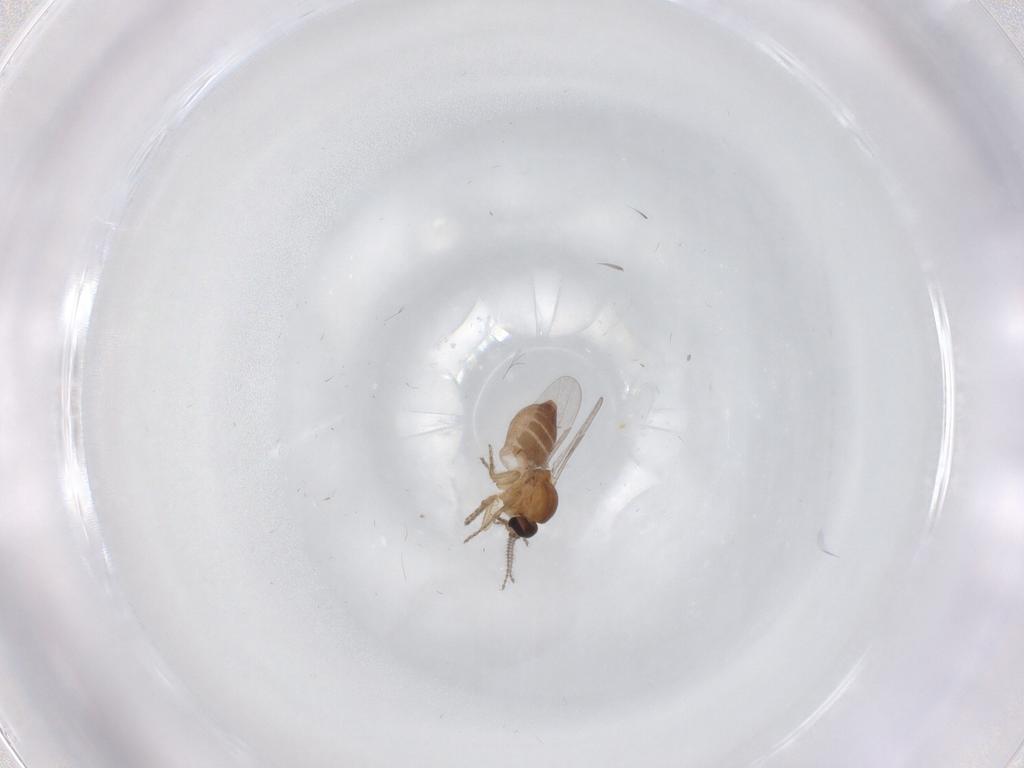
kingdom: Animalia
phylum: Arthropoda
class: Insecta
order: Diptera
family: Ceratopogonidae
